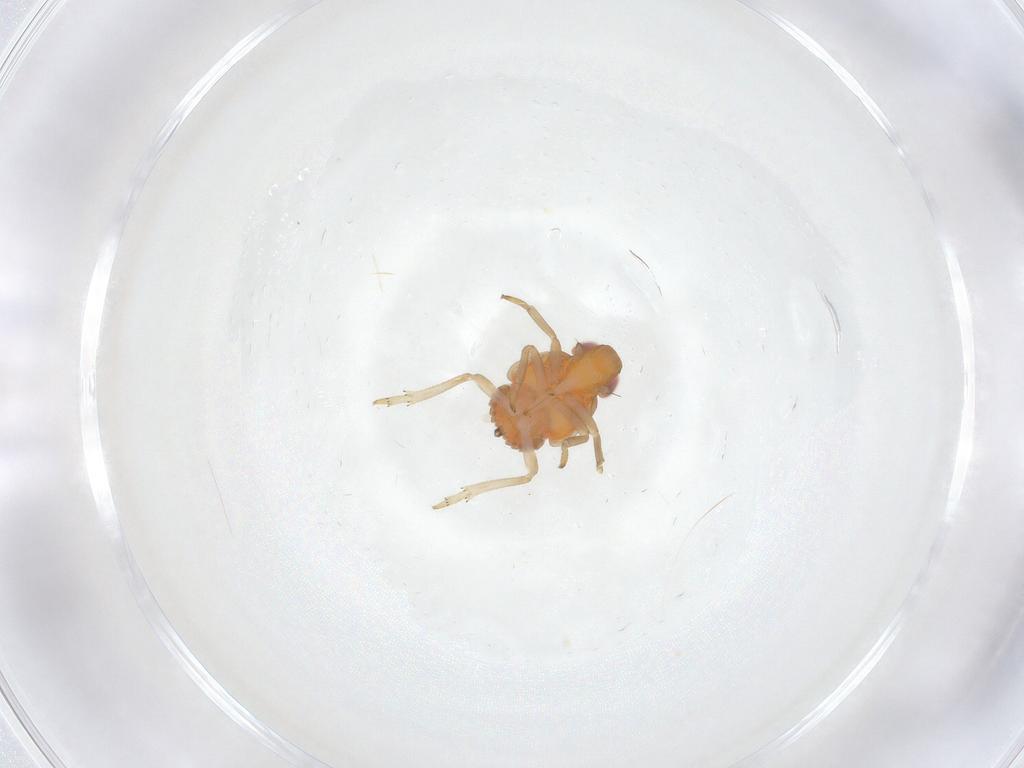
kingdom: Animalia
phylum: Arthropoda
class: Insecta
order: Hemiptera
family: Fulgoroidea_incertae_sedis
